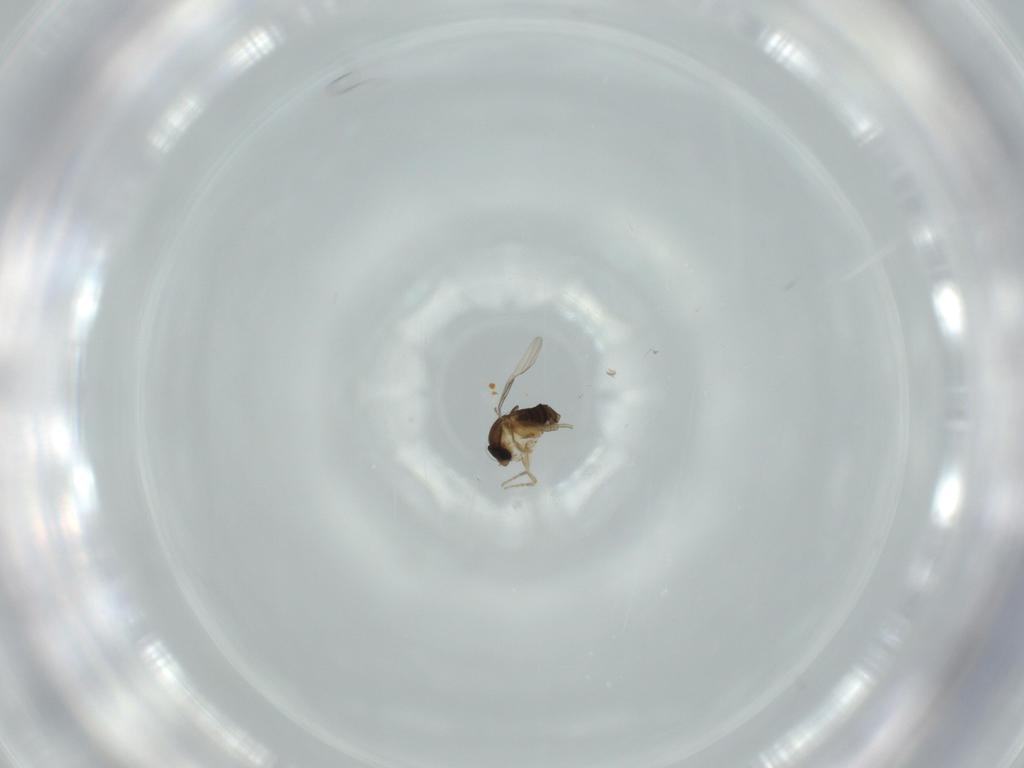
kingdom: Animalia
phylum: Arthropoda
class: Insecta
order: Diptera
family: Phoridae
